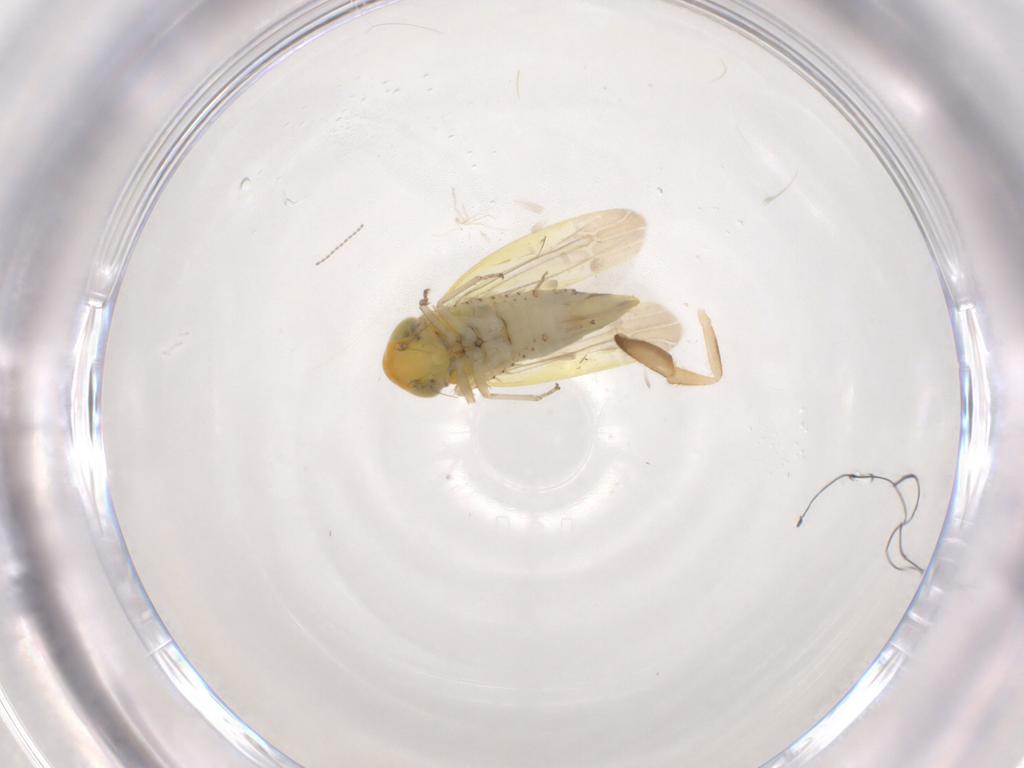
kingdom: Animalia
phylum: Arthropoda
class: Insecta
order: Hemiptera
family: Cicadellidae
